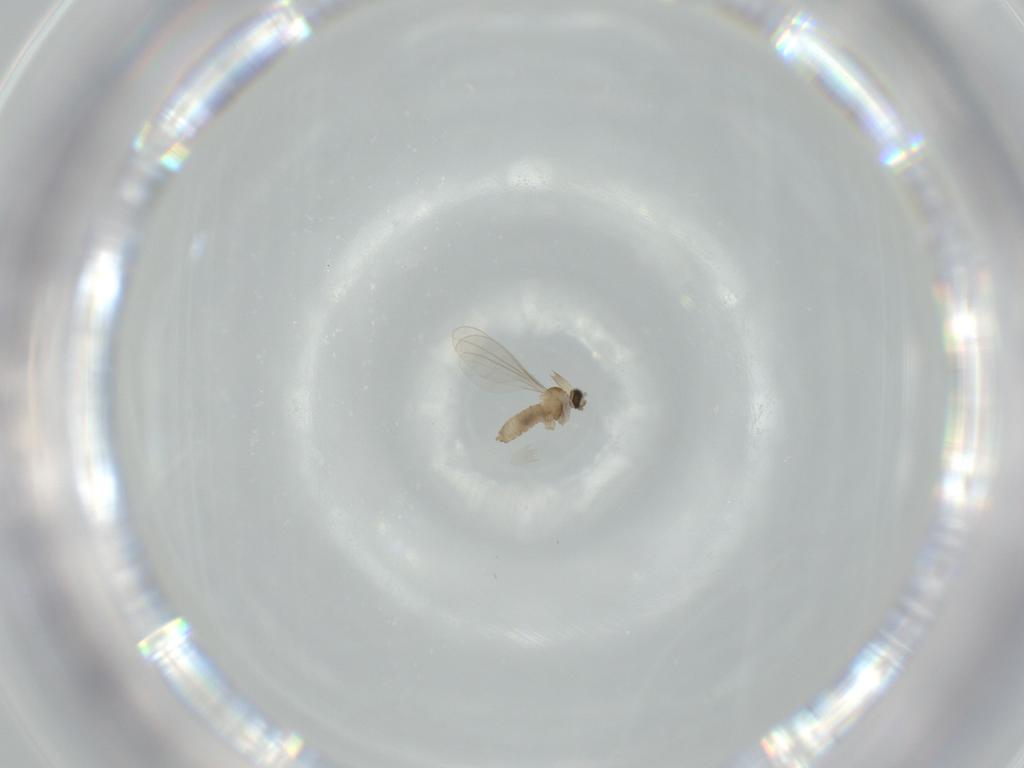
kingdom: Animalia
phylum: Arthropoda
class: Insecta
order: Diptera
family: Cecidomyiidae
